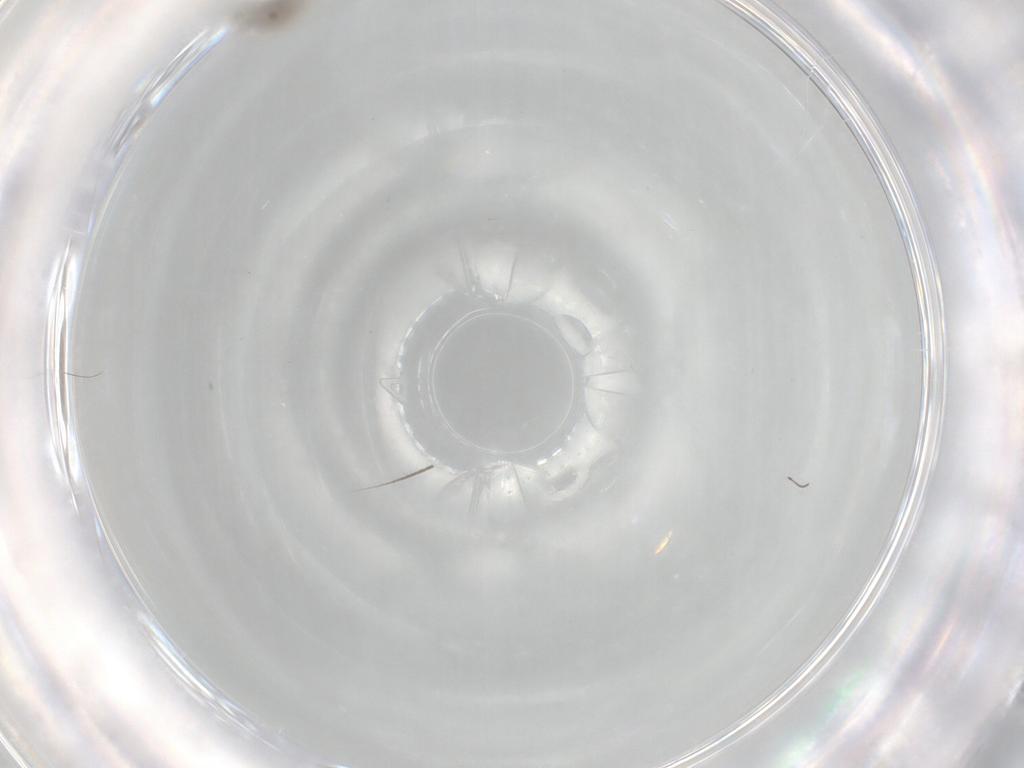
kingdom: Animalia
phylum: Arthropoda
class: Insecta
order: Diptera
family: Cecidomyiidae
